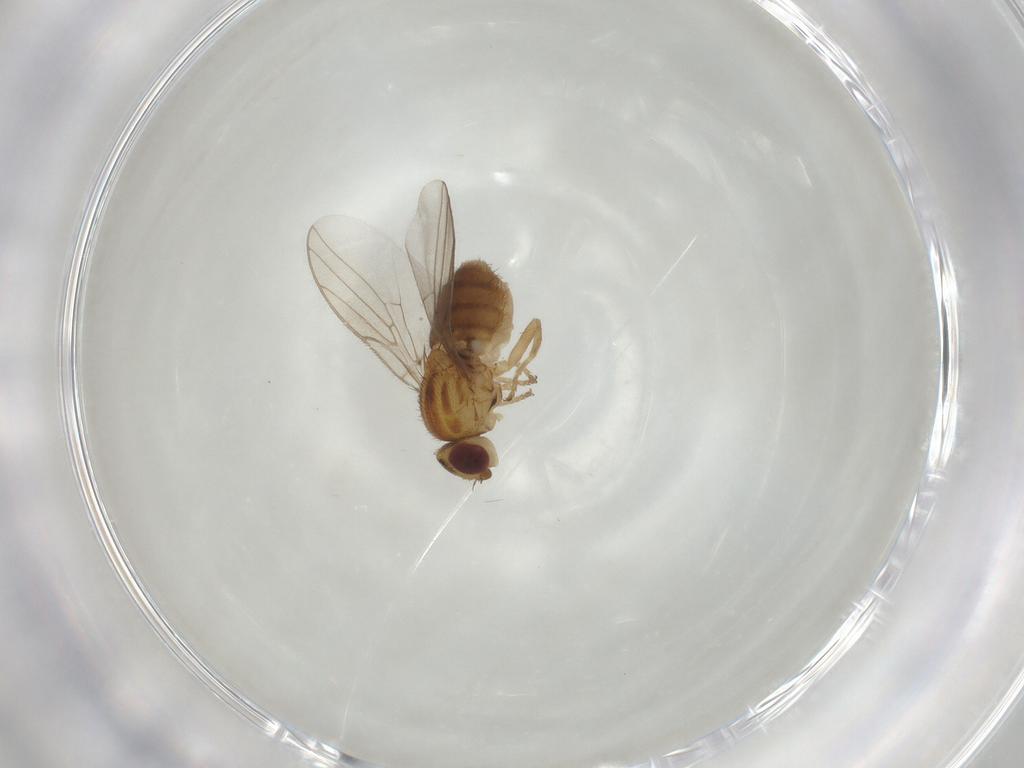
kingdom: Animalia
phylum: Arthropoda
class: Insecta
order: Diptera
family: Chloropidae
